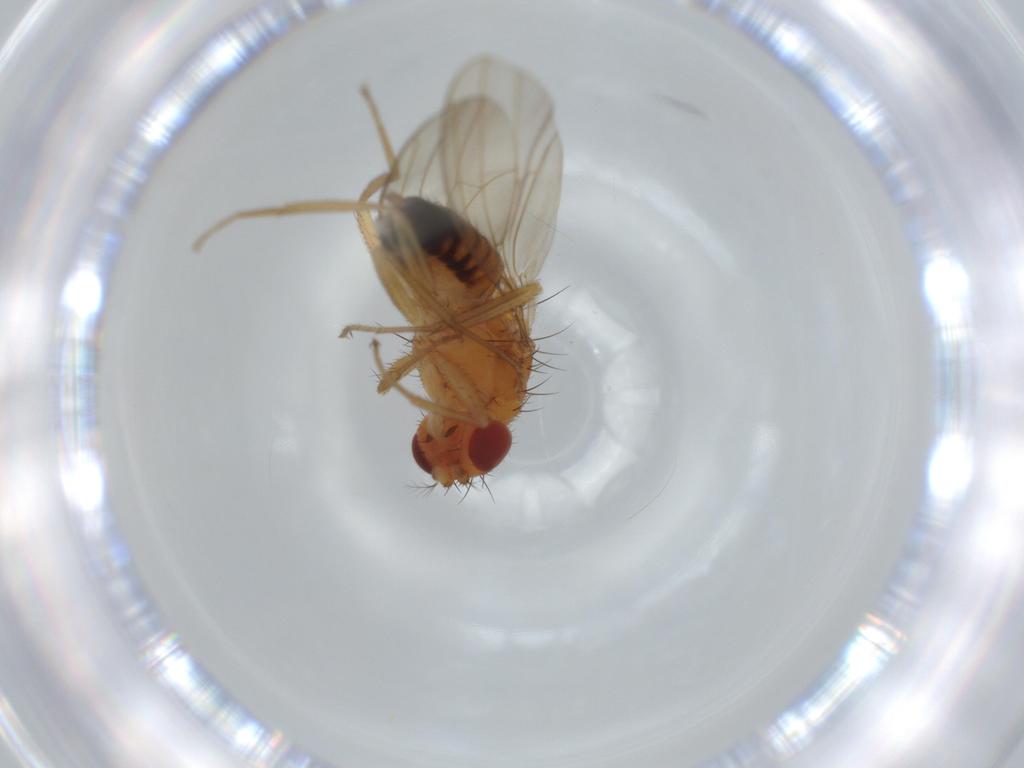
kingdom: Animalia
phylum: Arthropoda
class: Insecta
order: Diptera
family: Drosophilidae
